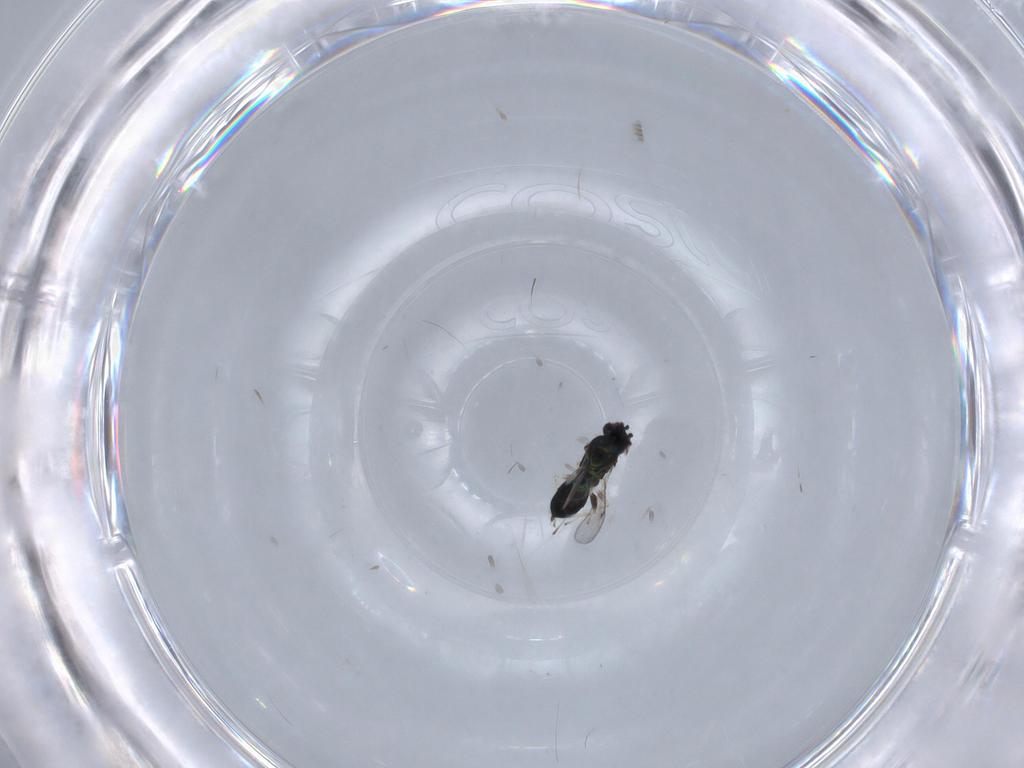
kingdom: Animalia
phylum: Arthropoda
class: Insecta
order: Hymenoptera
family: Eulophidae
